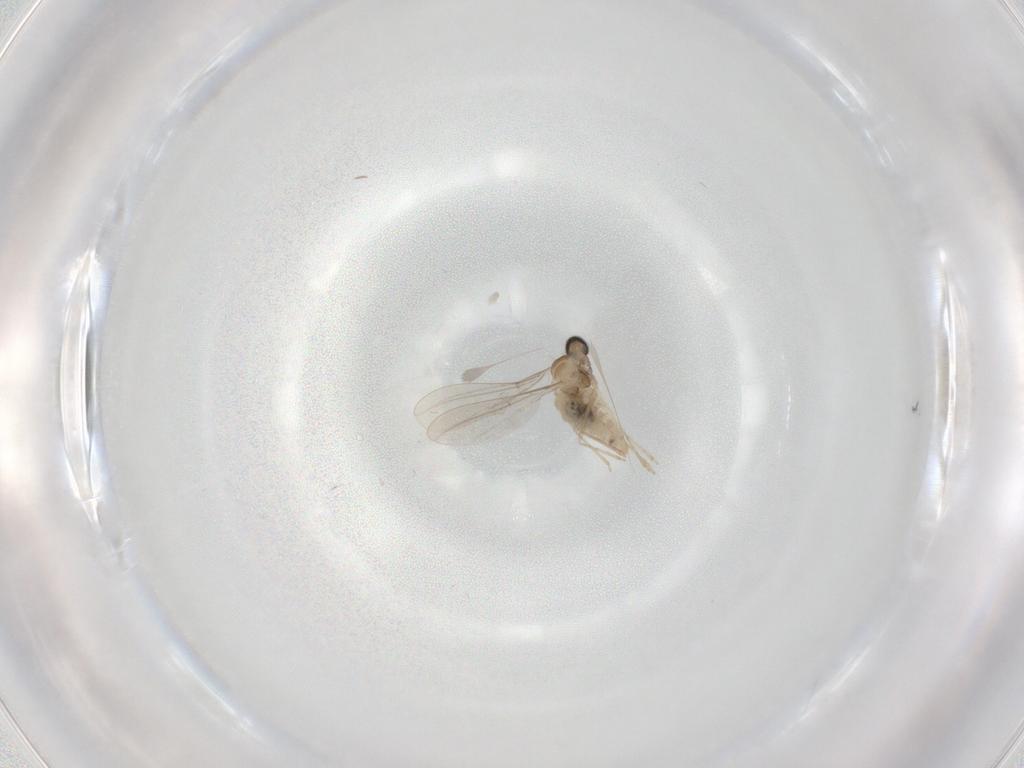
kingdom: Animalia
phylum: Arthropoda
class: Insecta
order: Diptera
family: Cecidomyiidae
